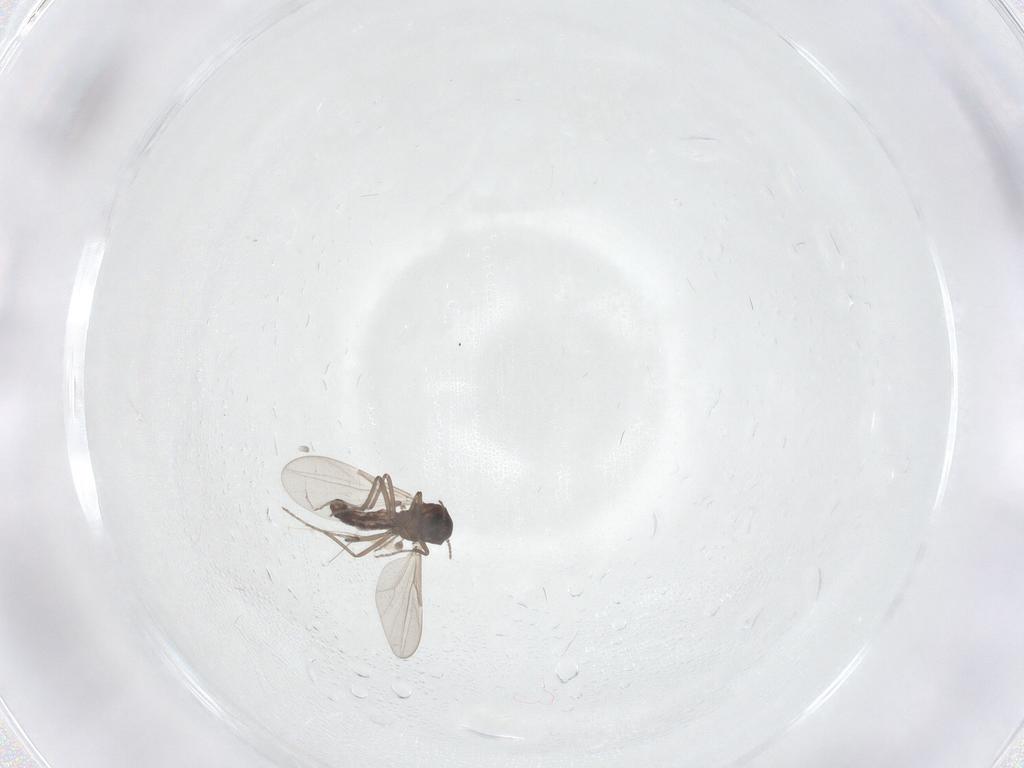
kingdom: Animalia
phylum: Arthropoda
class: Insecta
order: Diptera
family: Ceratopogonidae
